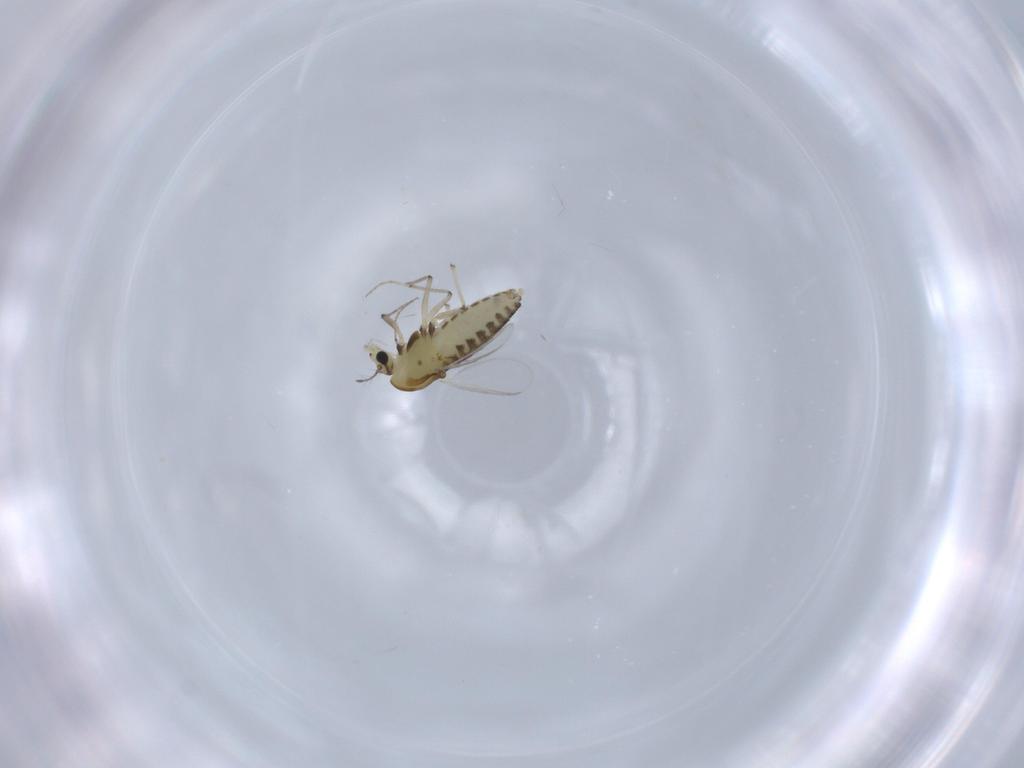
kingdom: Animalia
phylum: Arthropoda
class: Insecta
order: Diptera
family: Chironomidae
